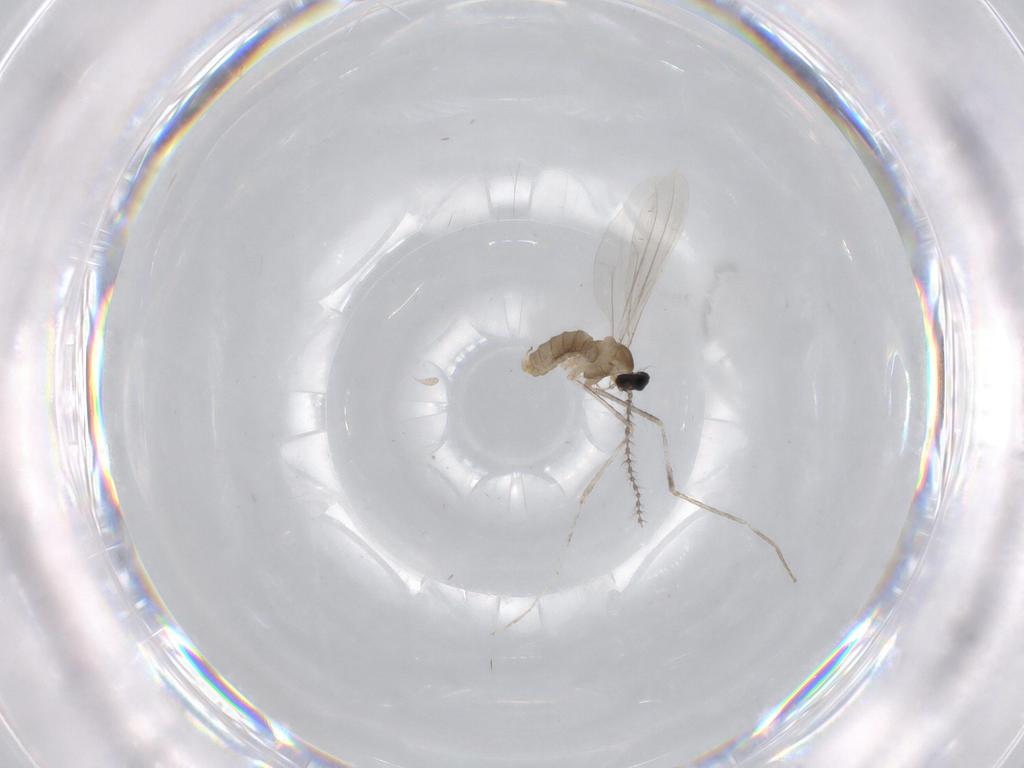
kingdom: Animalia
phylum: Arthropoda
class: Insecta
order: Diptera
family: Cecidomyiidae
